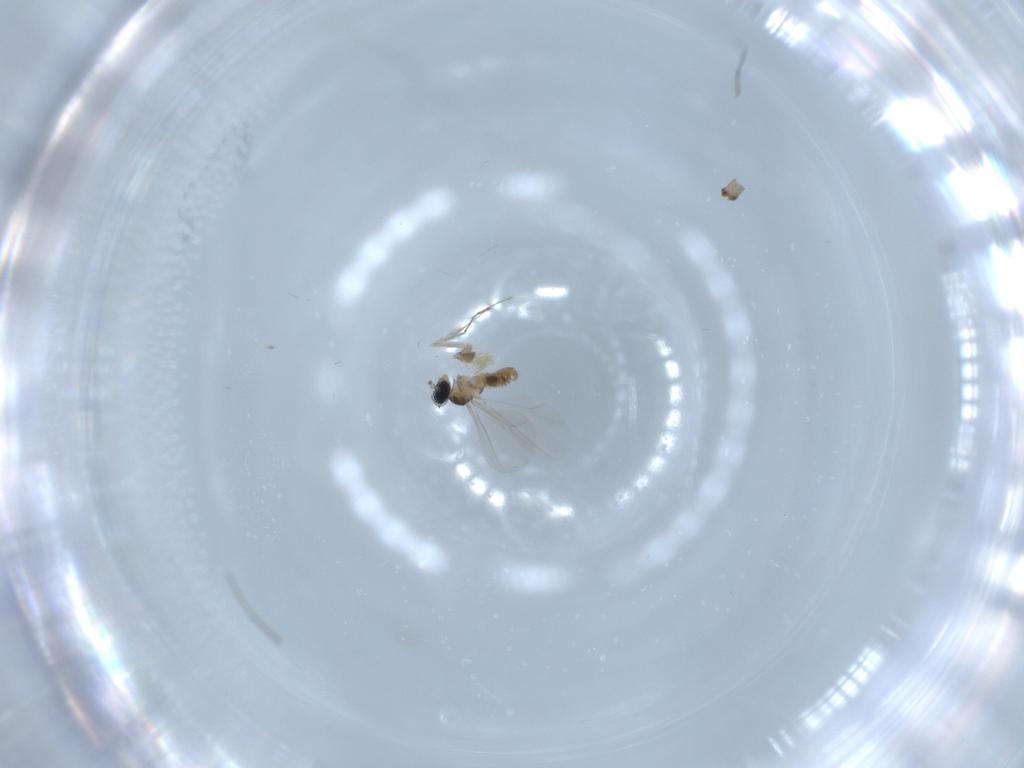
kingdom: Animalia
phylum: Arthropoda
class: Insecta
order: Diptera
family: Cecidomyiidae
